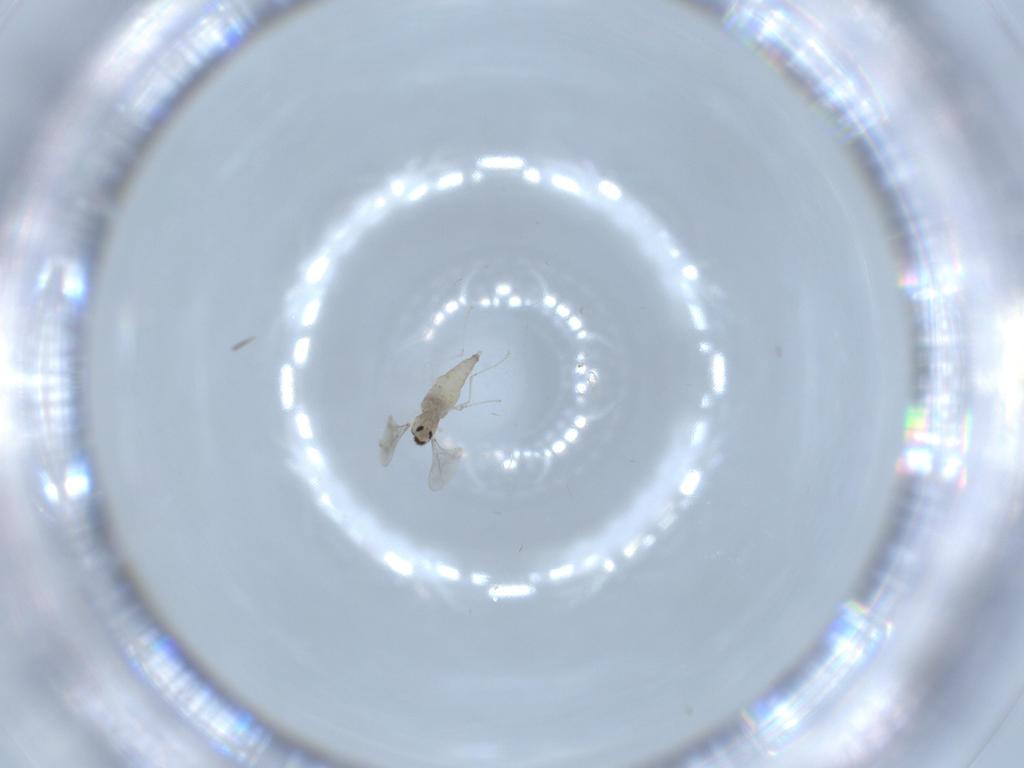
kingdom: Animalia
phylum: Arthropoda
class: Insecta
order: Diptera
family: Cecidomyiidae
